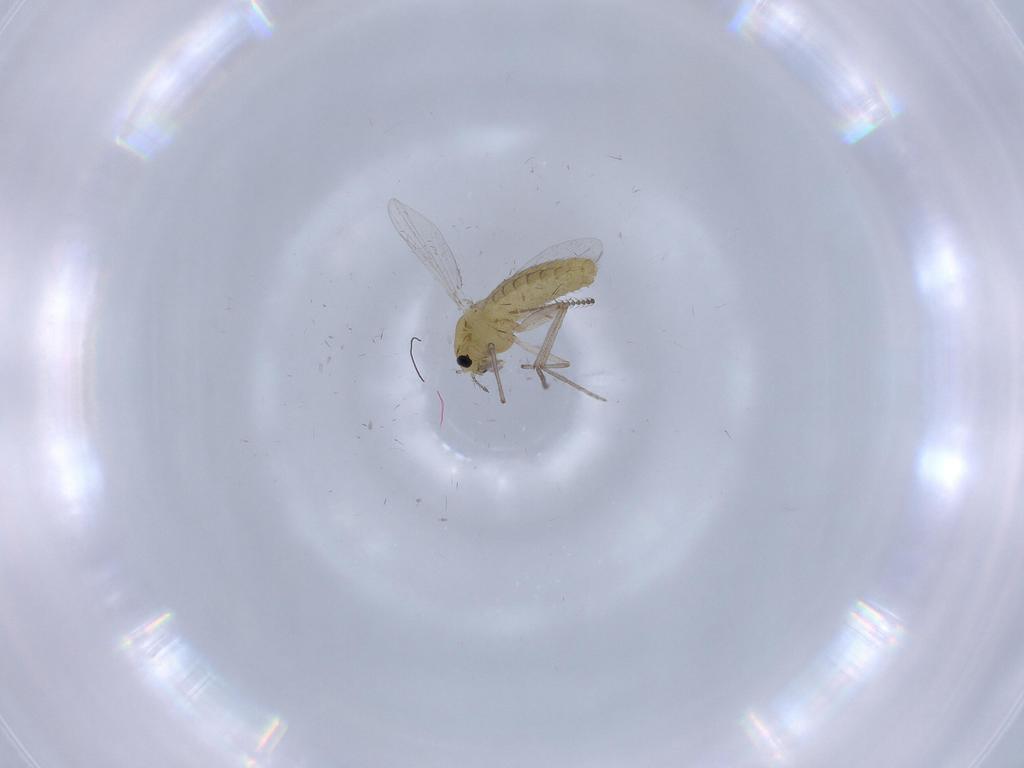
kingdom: Animalia
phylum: Arthropoda
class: Insecta
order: Diptera
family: Chironomidae
